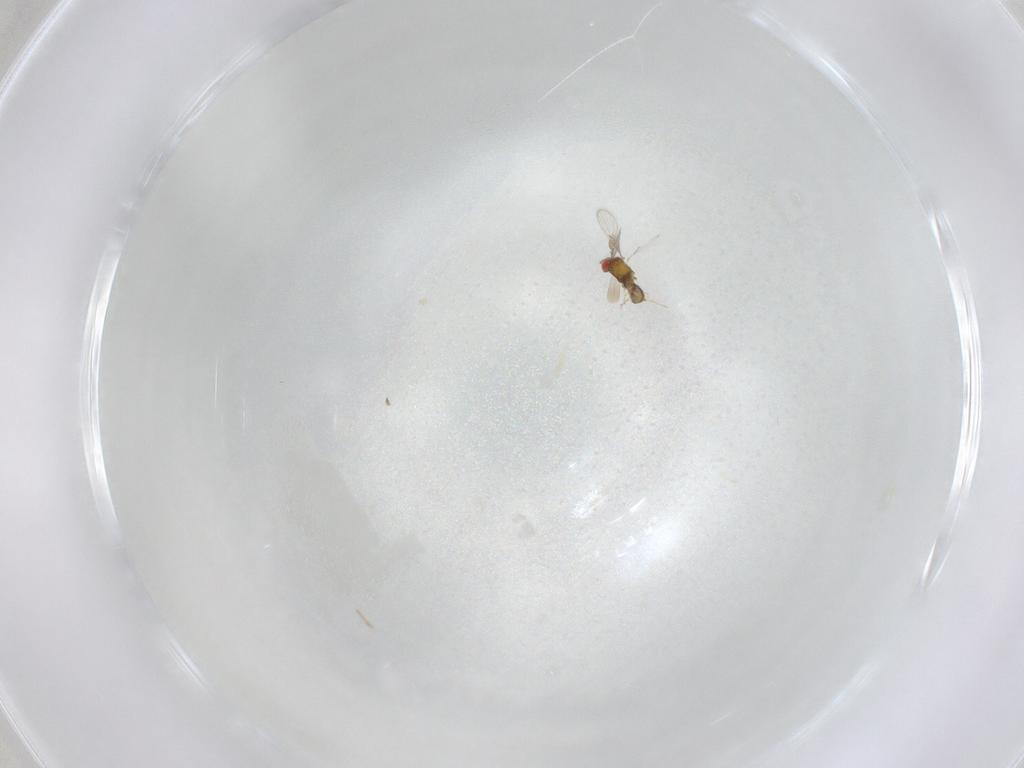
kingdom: Animalia
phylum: Arthropoda
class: Insecta
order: Hymenoptera
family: Trichogrammatidae
